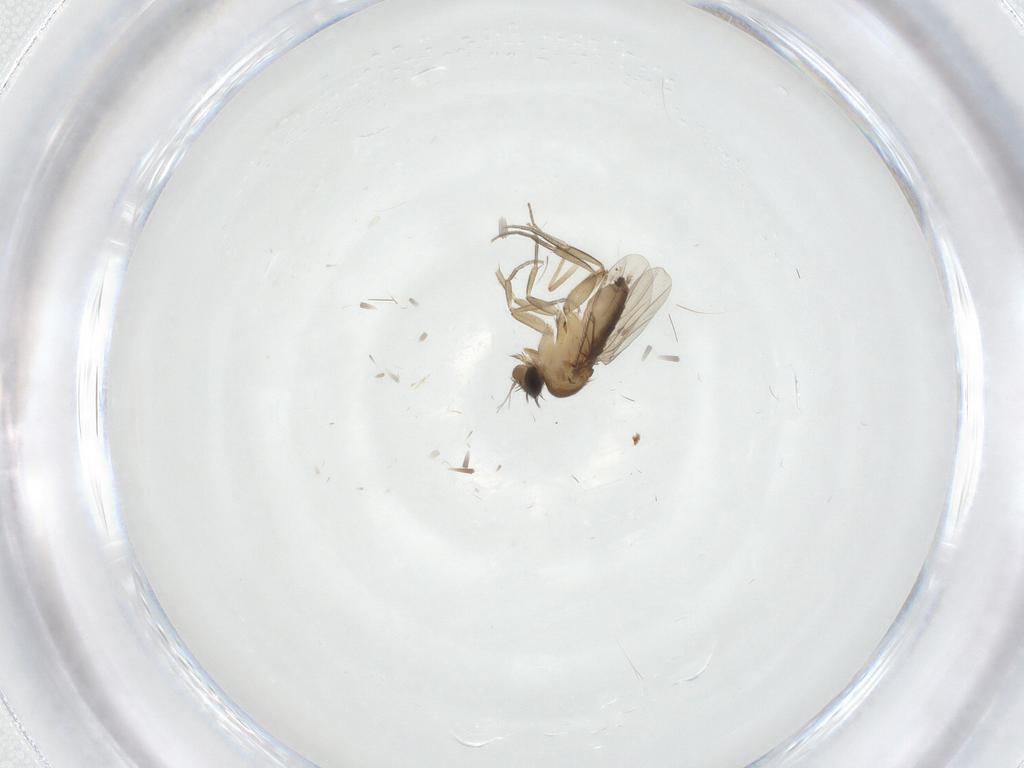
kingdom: Animalia
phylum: Arthropoda
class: Insecta
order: Diptera
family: Phoridae
